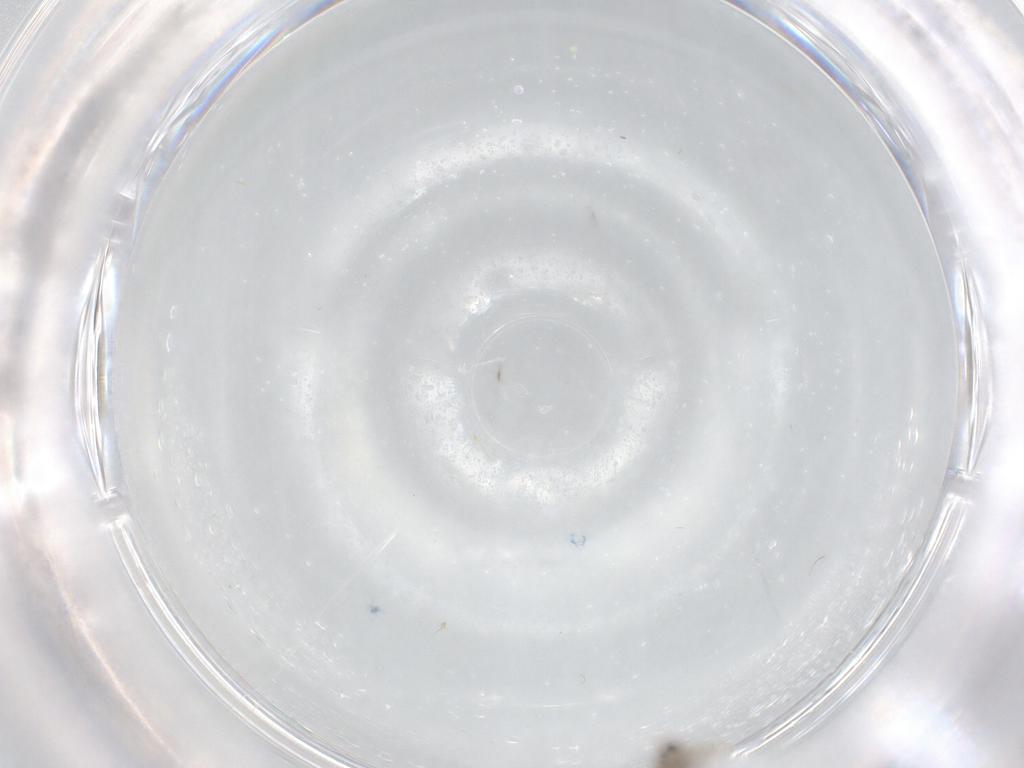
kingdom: Animalia
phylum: Arthropoda
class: Insecta
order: Diptera
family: Cecidomyiidae
